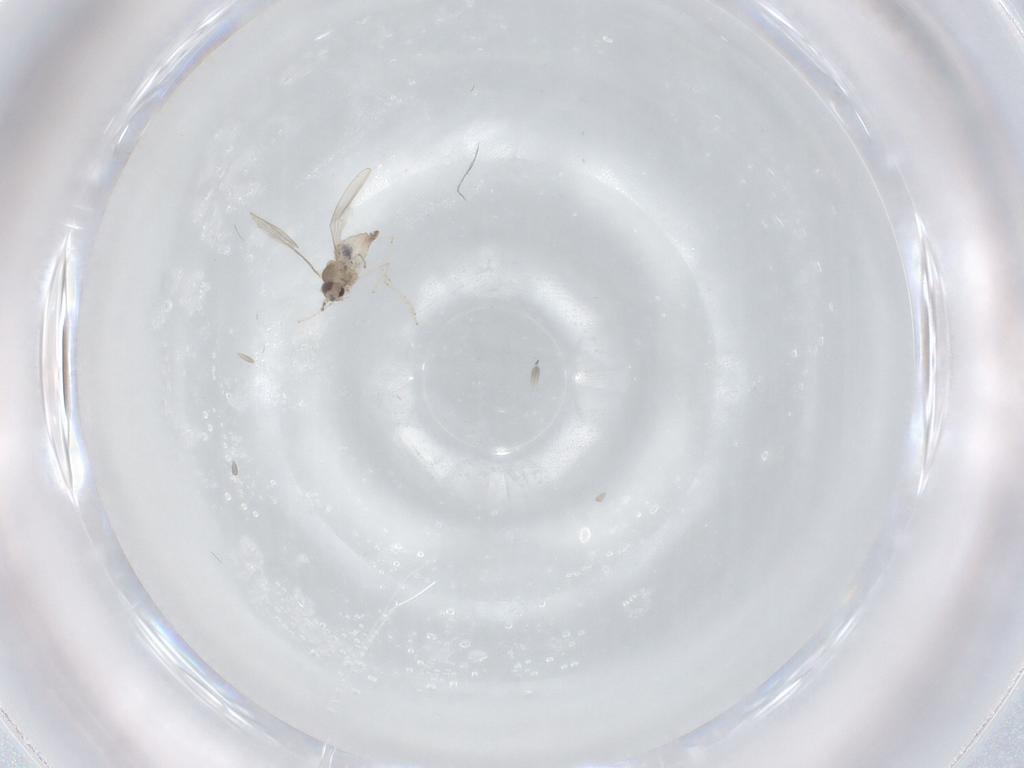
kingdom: Animalia
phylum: Arthropoda
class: Insecta
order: Diptera
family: Cecidomyiidae
